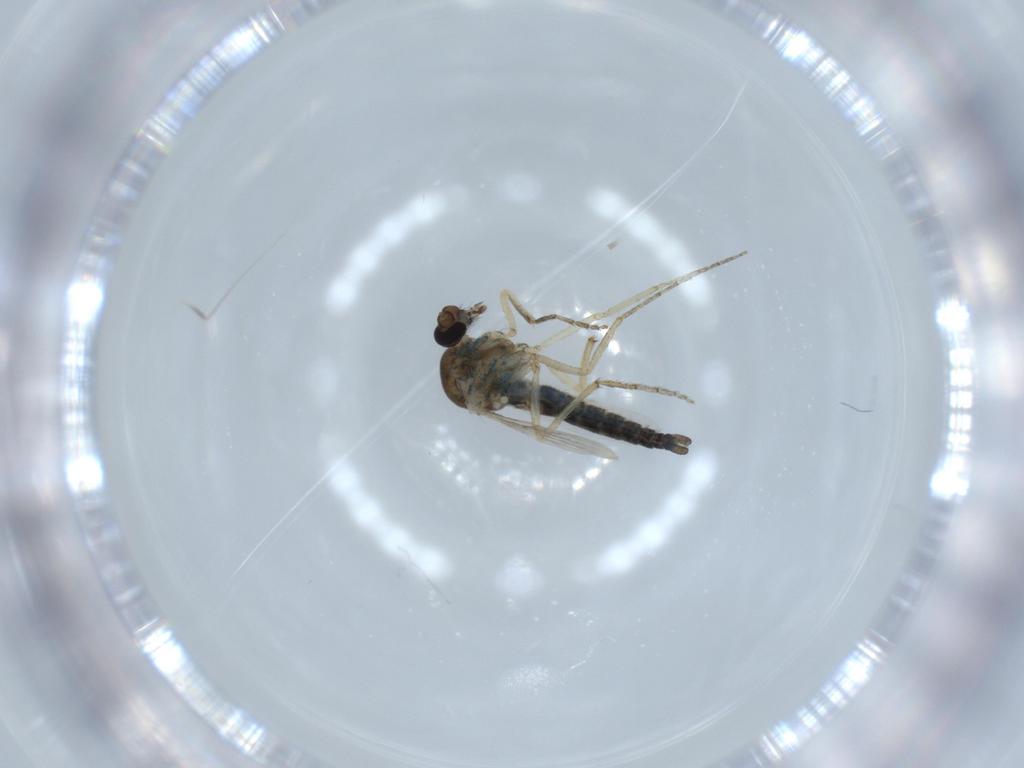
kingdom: Animalia
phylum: Arthropoda
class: Insecta
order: Diptera
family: Ceratopogonidae
